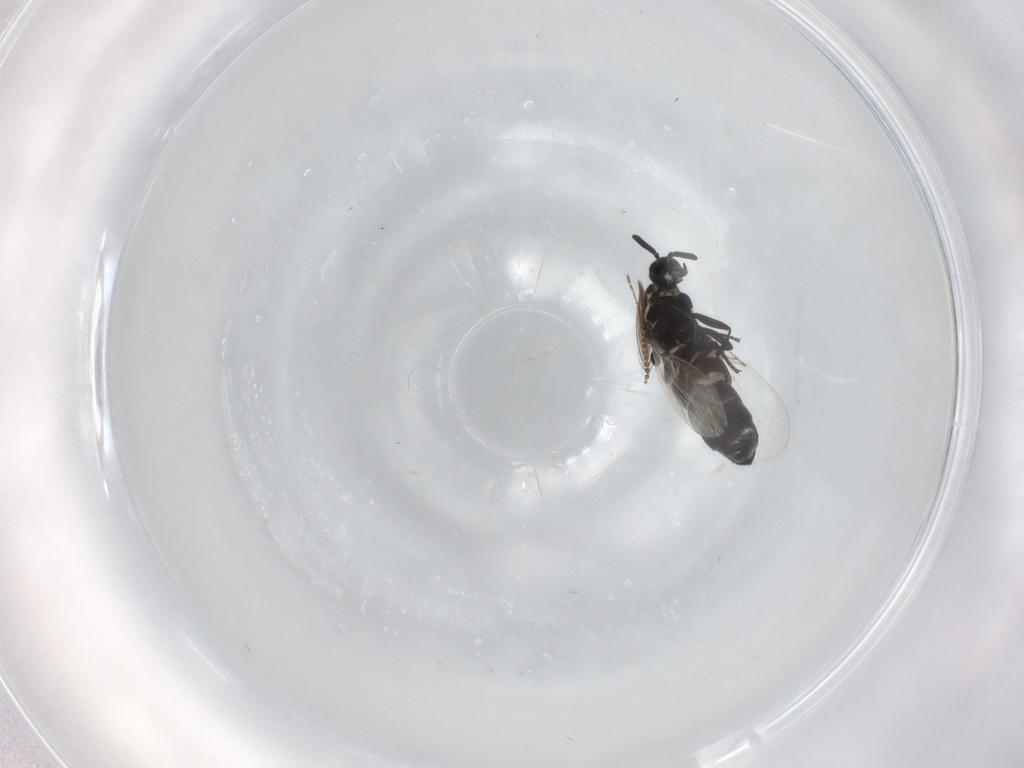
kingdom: Animalia
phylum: Arthropoda
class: Insecta
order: Diptera
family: Scatopsidae
